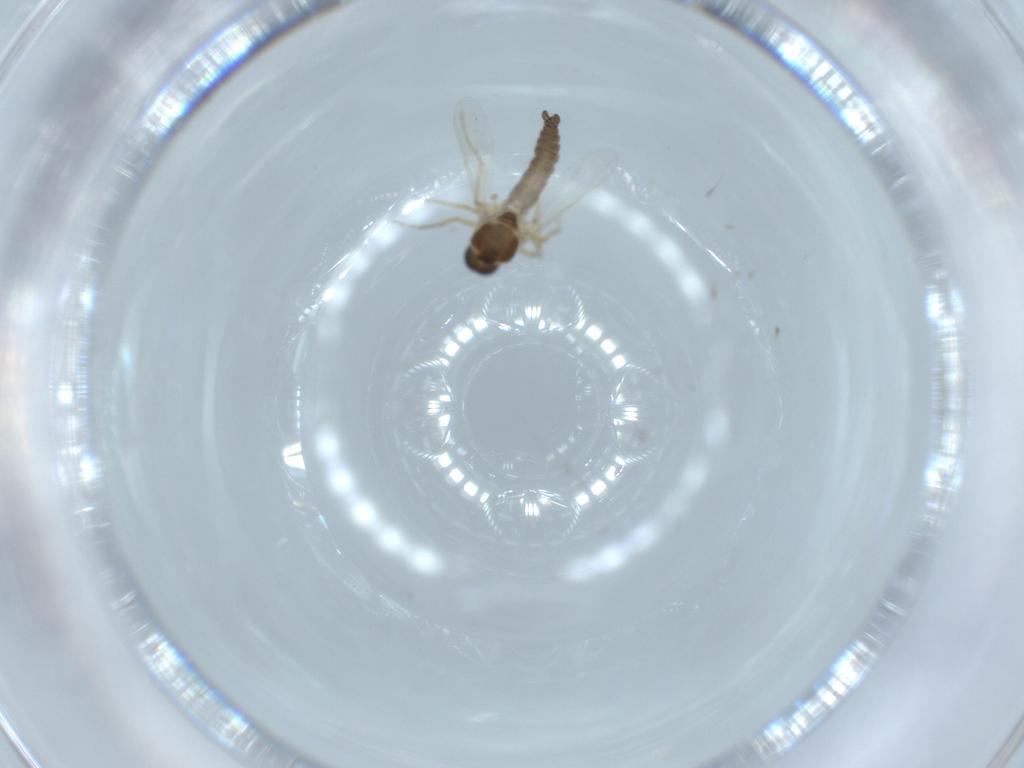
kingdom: Animalia
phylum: Arthropoda
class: Insecta
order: Diptera
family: Ceratopogonidae
